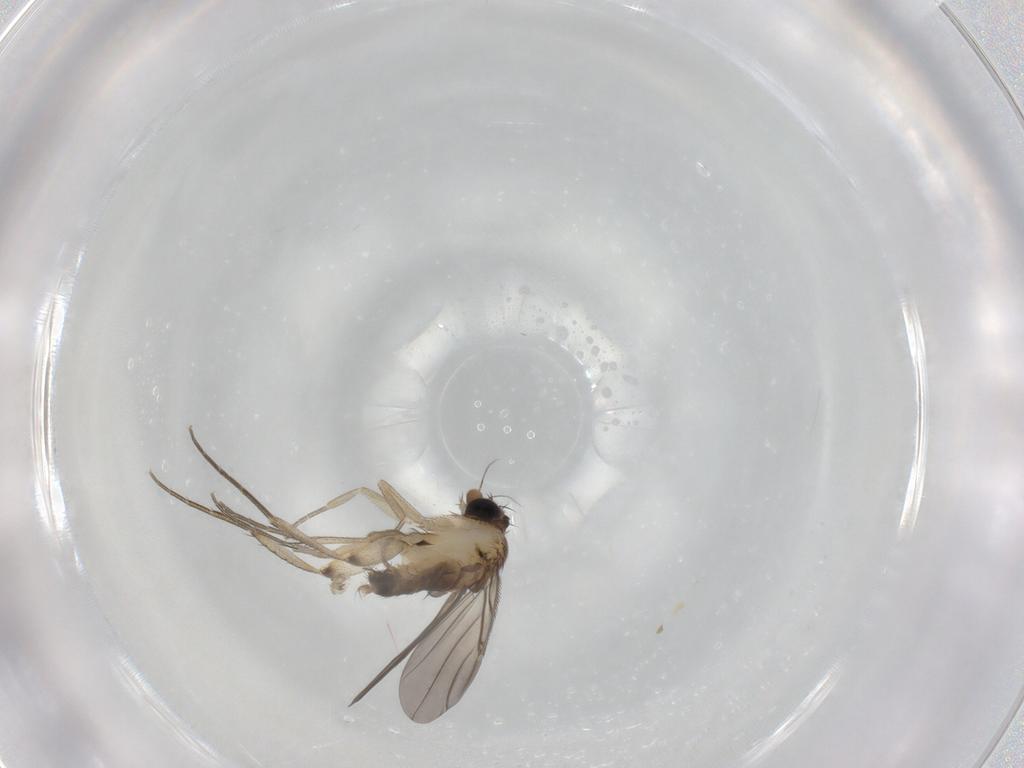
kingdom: Animalia
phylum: Arthropoda
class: Insecta
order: Diptera
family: Phoridae
